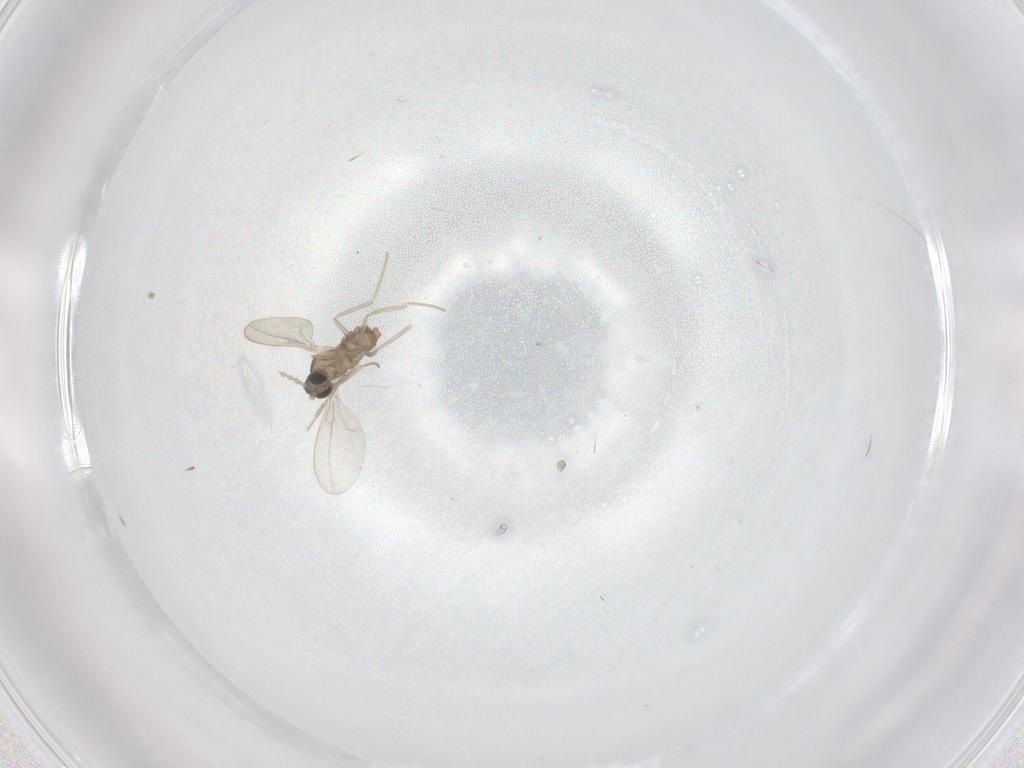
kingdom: Animalia
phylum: Arthropoda
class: Insecta
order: Diptera
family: Cecidomyiidae
